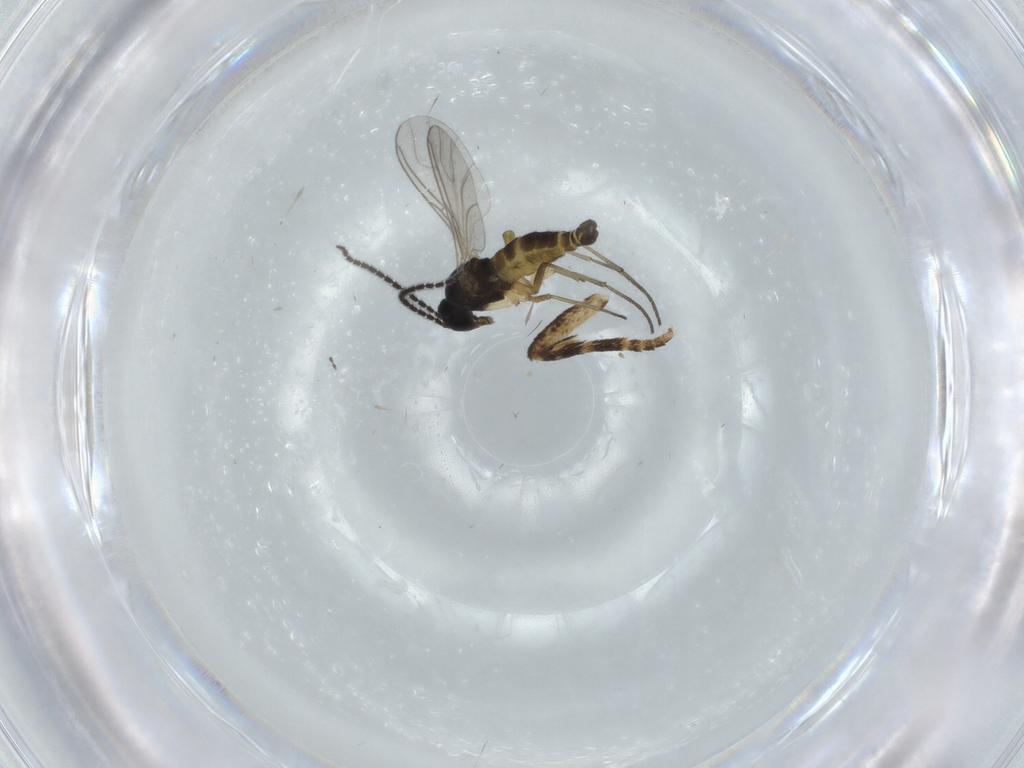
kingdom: Animalia
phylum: Arthropoda
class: Insecta
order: Diptera
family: Sciaridae
